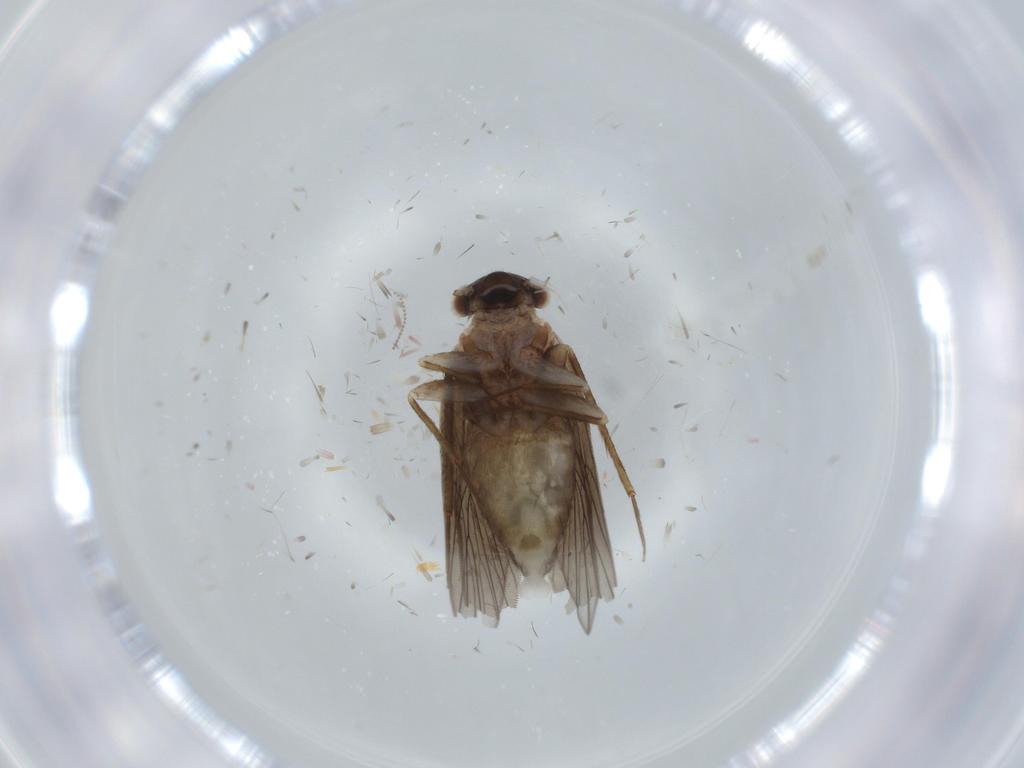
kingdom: Animalia
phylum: Arthropoda
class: Insecta
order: Psocodea
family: Lepidopsocidae
